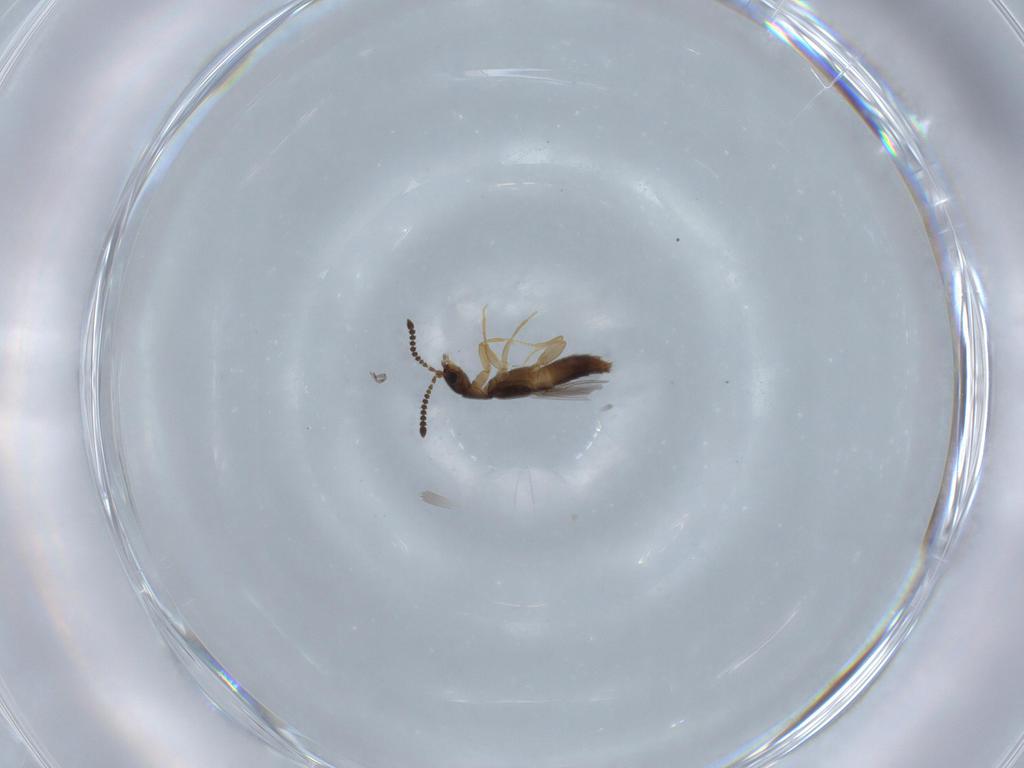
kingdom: Animalia
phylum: Arthropoda
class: Insecta
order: Coleoptera
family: Staphylinidae
